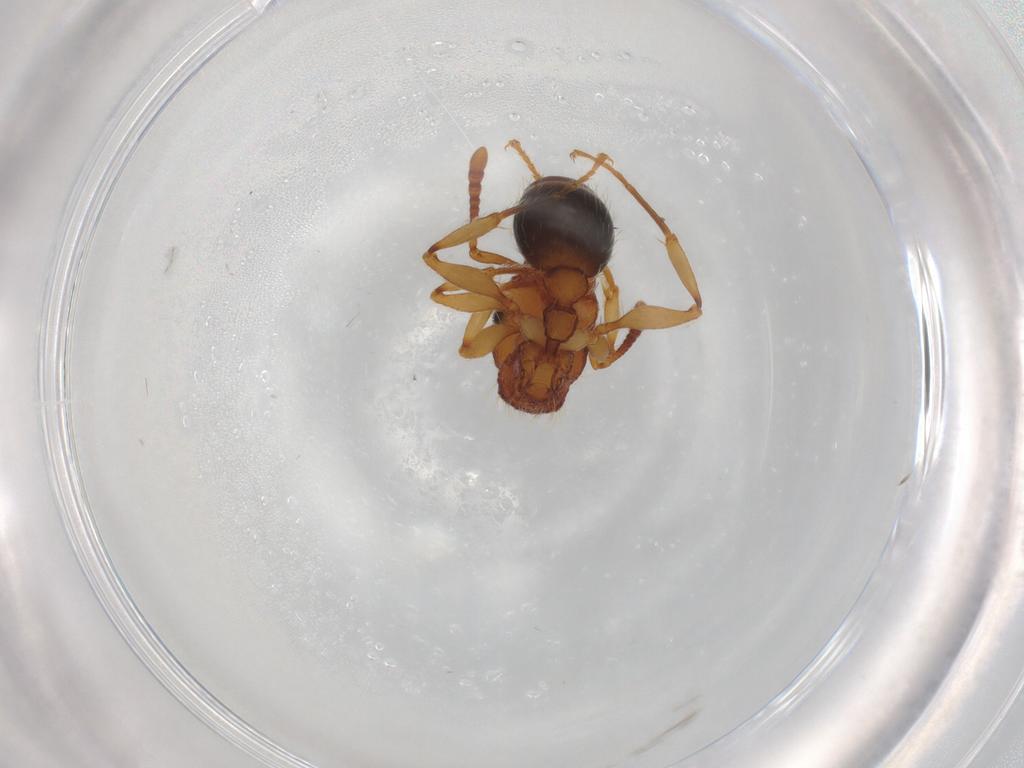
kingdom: Animalia
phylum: Arthropoda
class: Insecta
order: Hymenoptera
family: Formicidae
